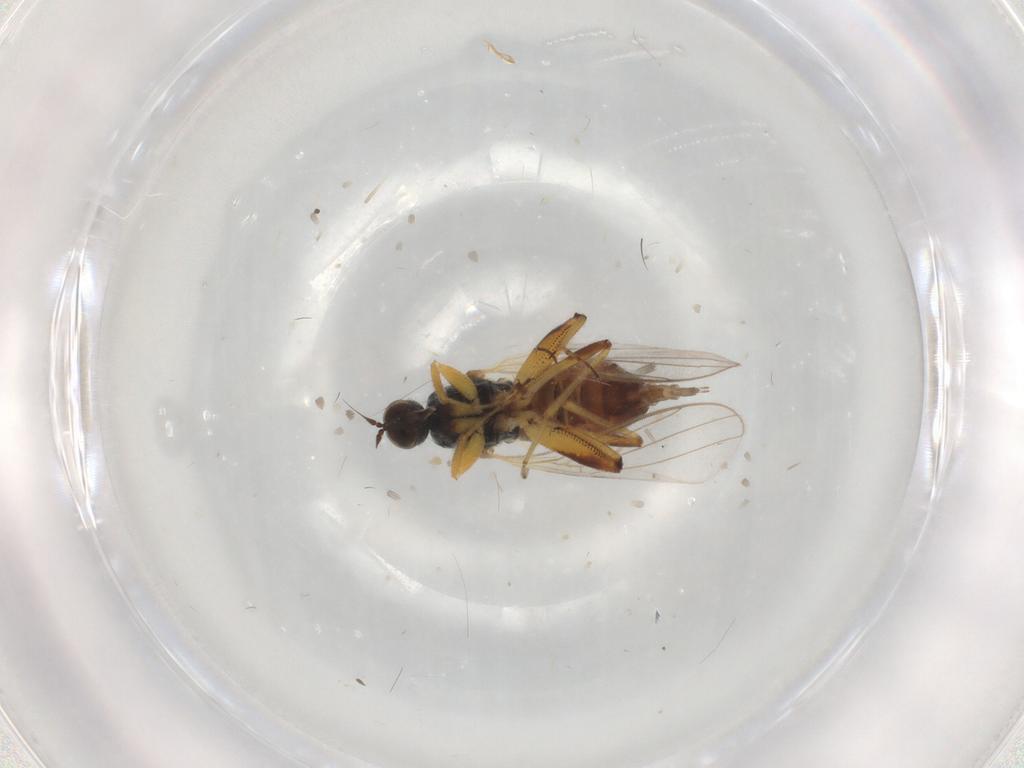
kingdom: Animalia
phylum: Arthropoda
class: Insecta
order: Diptera
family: Hybotidae
